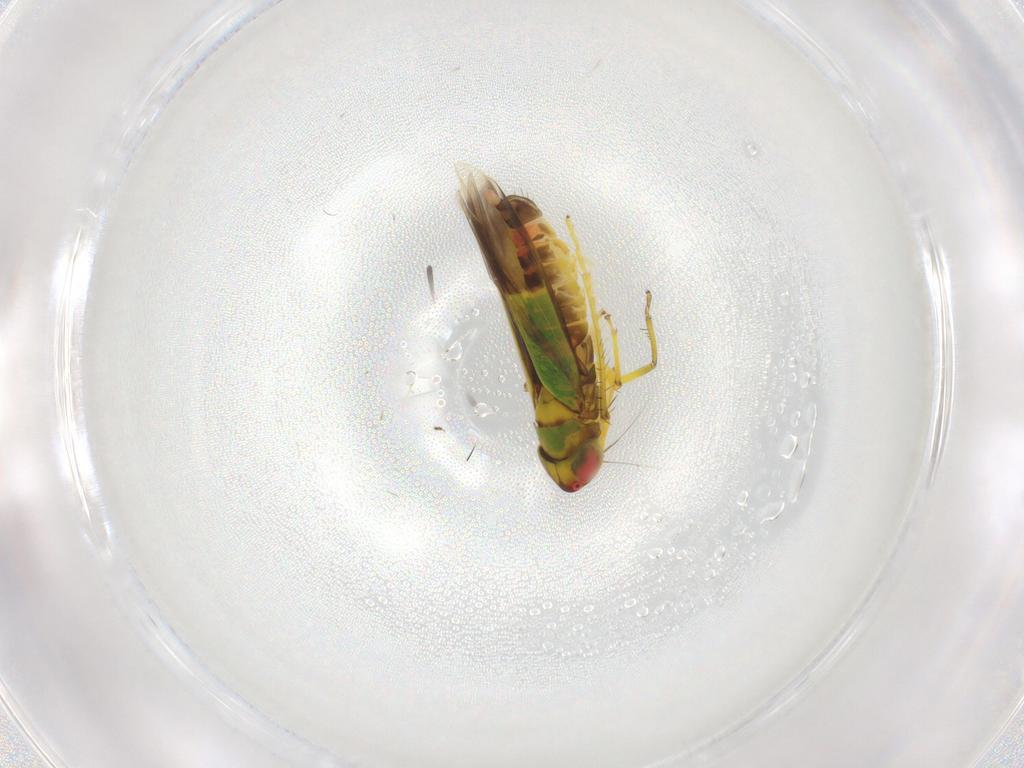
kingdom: Animalia
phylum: Arthropoda
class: Insecta
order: Hemiptera
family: Cicadellidae
